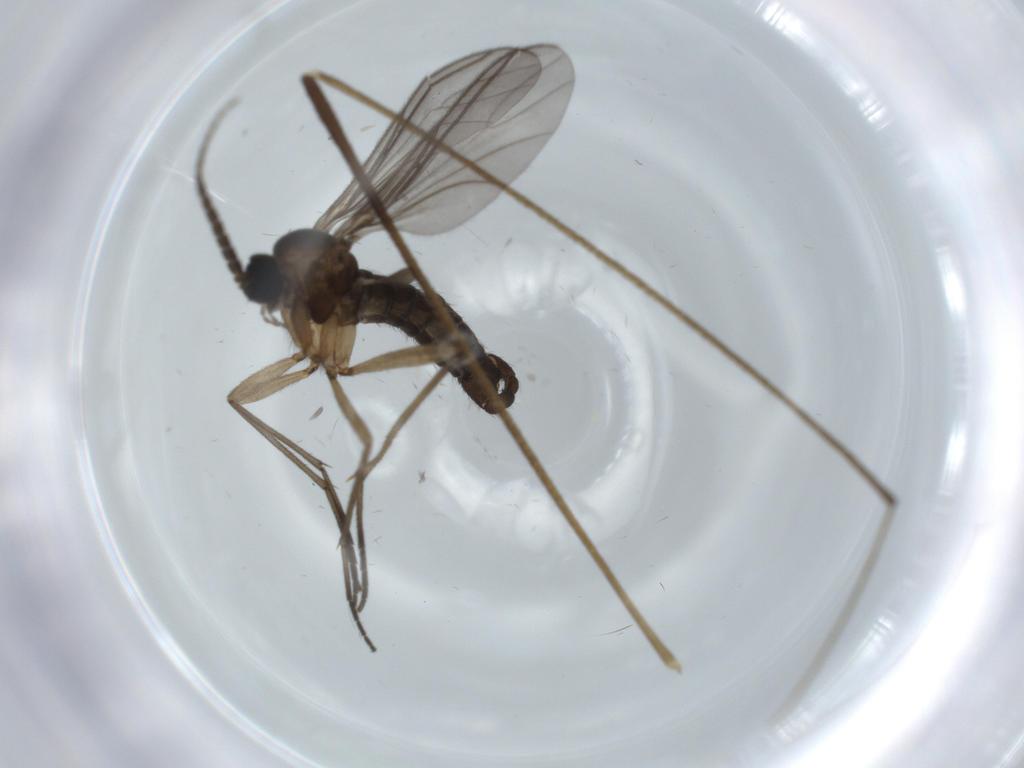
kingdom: Animalia
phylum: Arthropoda
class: Insecta
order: Diptera
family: Sciaridae
